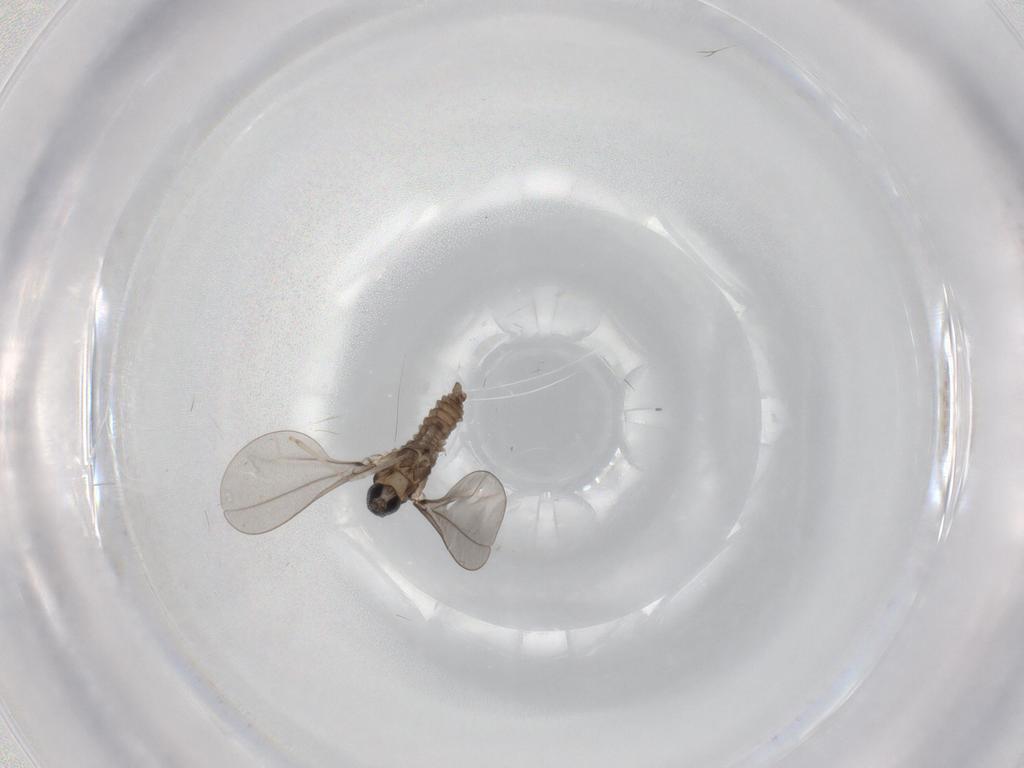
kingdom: Animalia
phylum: Arthropoda
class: Insecta
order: Diptera
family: Cecidomyiidae
